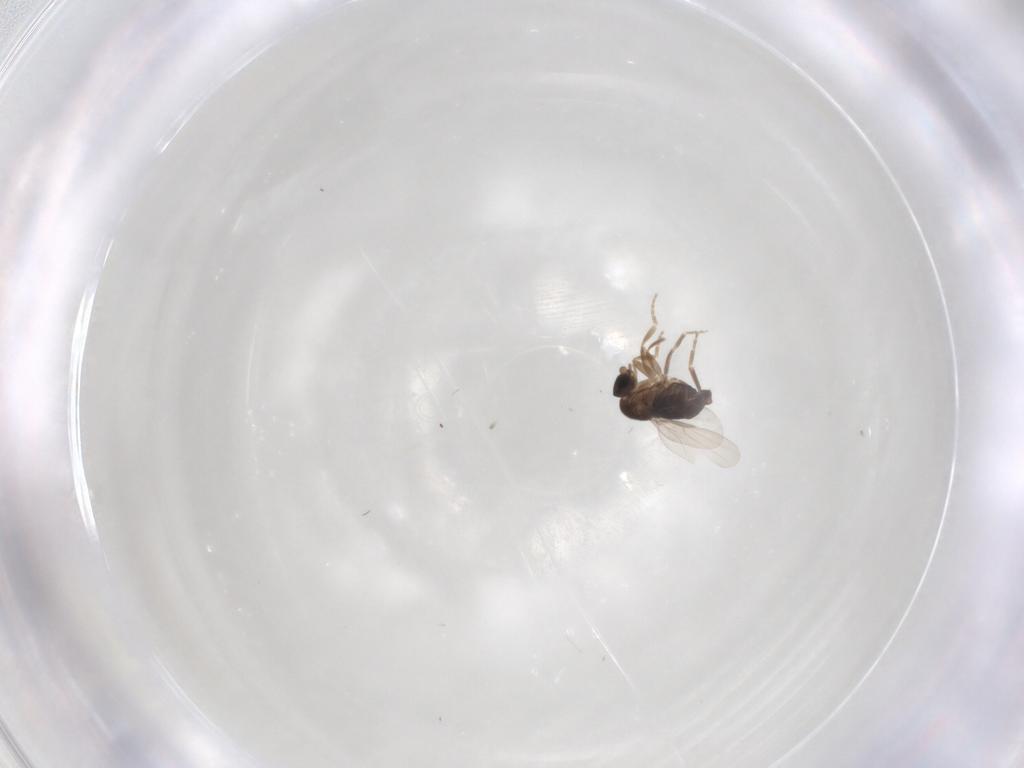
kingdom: Animalia
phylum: Arthropoda
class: Insecta
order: Diptera
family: Phoridae
